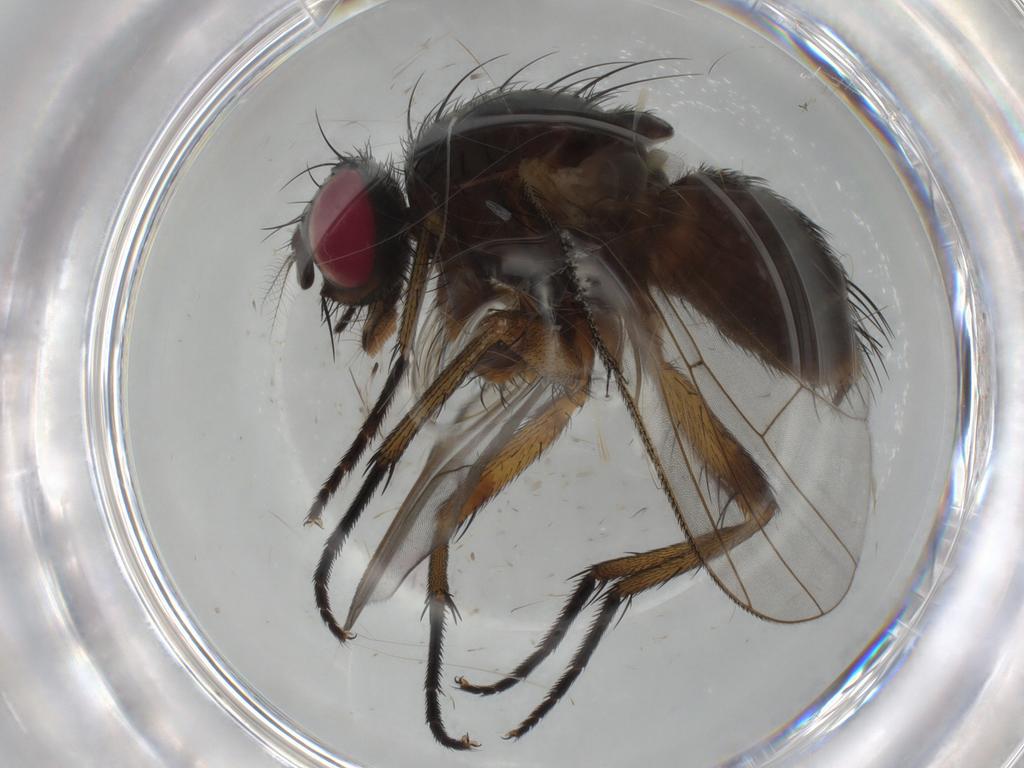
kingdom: Animalia
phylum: Arthropoda
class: Insecta
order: Diptera
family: Muscidae
